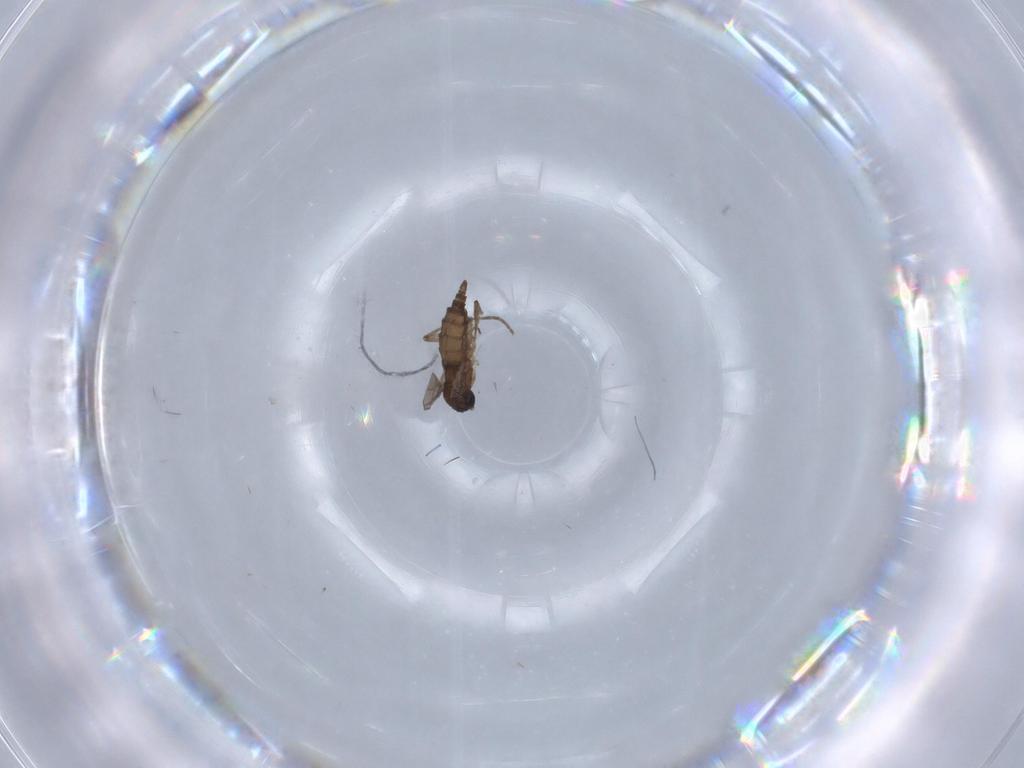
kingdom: Animalia
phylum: Arthropoda
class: Insecta
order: Diptera
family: Sciaridae
